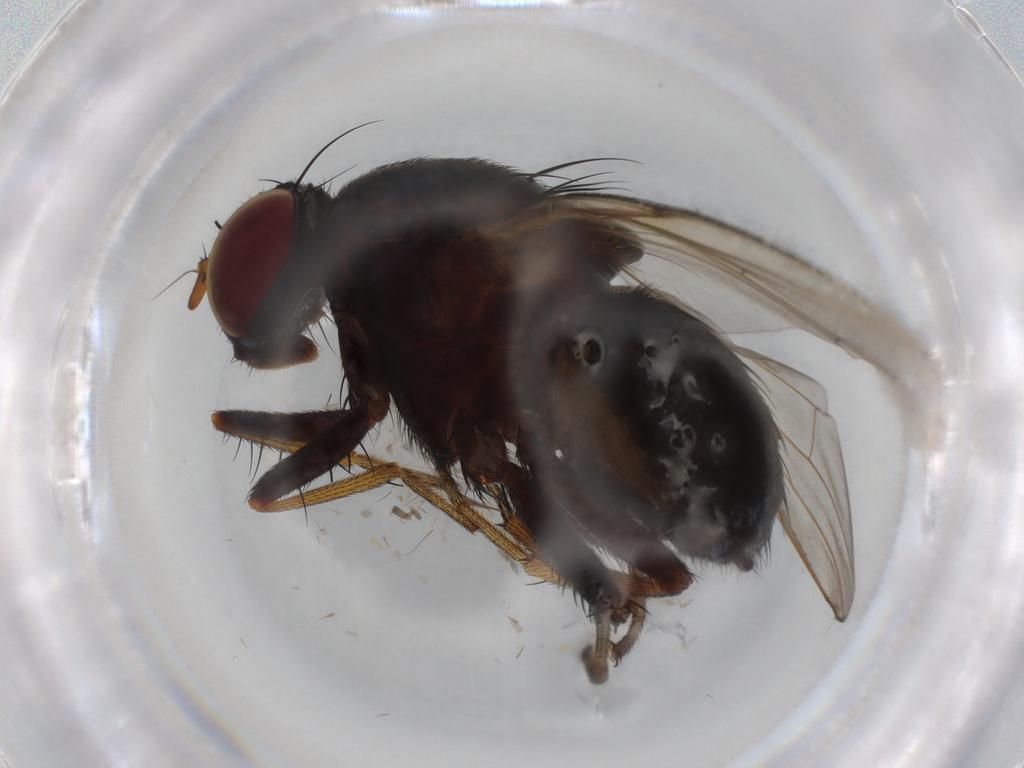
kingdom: Animalia
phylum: Arthropoda
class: Insecta
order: Diptera
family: Muscidae
